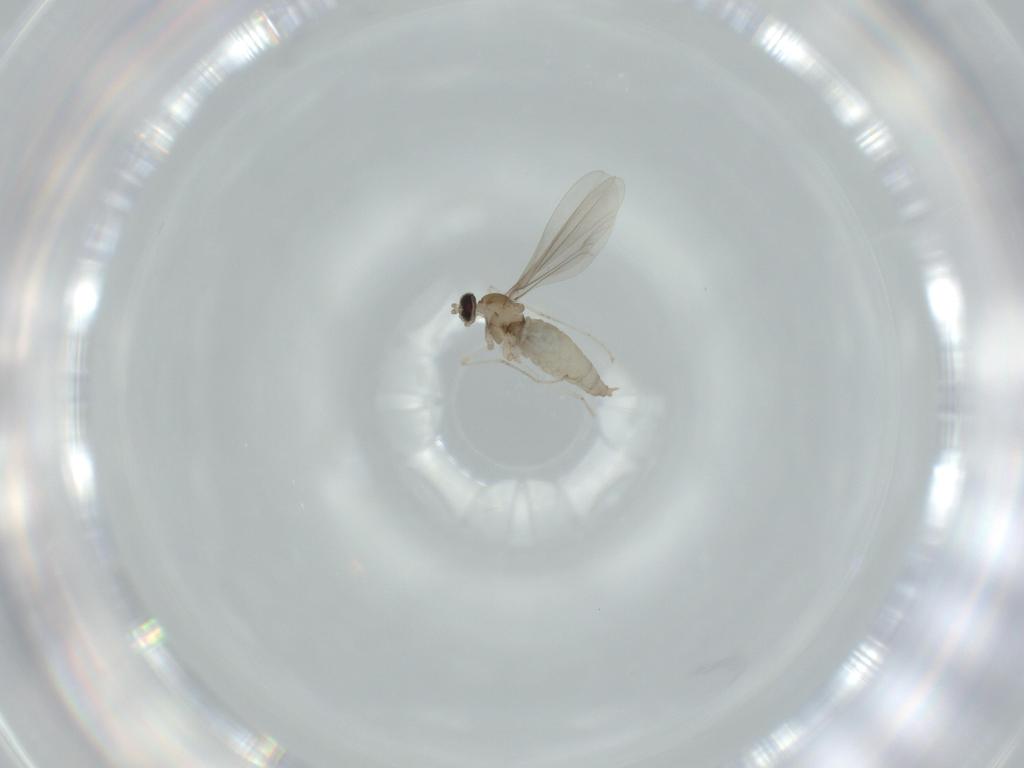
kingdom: Animalia
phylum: Arthropoda
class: Insecta
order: Diptera
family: Cecidomyiidae
